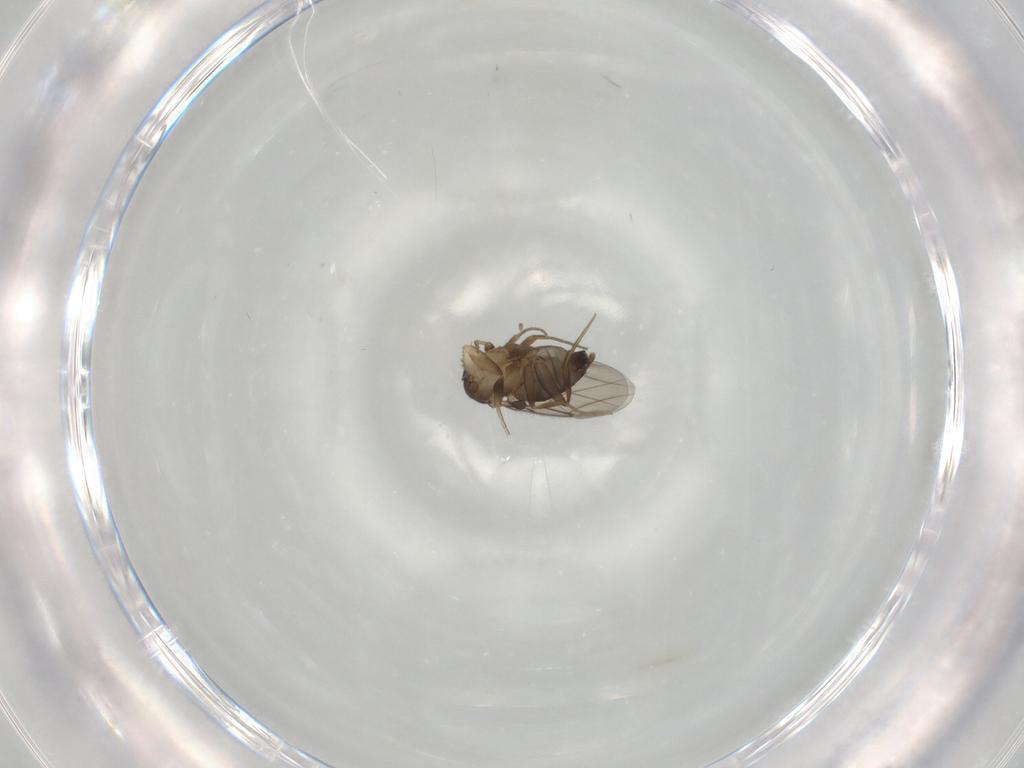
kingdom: Animalia
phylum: Arthropoda
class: Insecta
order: Diptera
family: Phoridae
